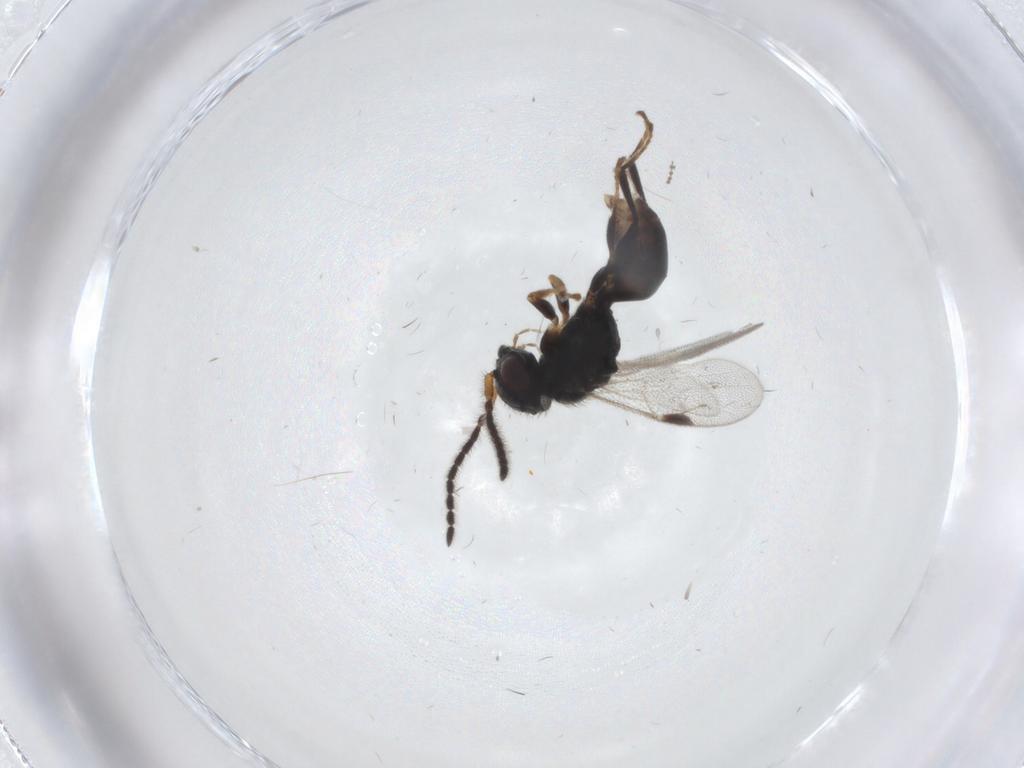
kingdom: Animalia
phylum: Arthropoda
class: Insecta
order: Hymenoptera
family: Dryinidae
